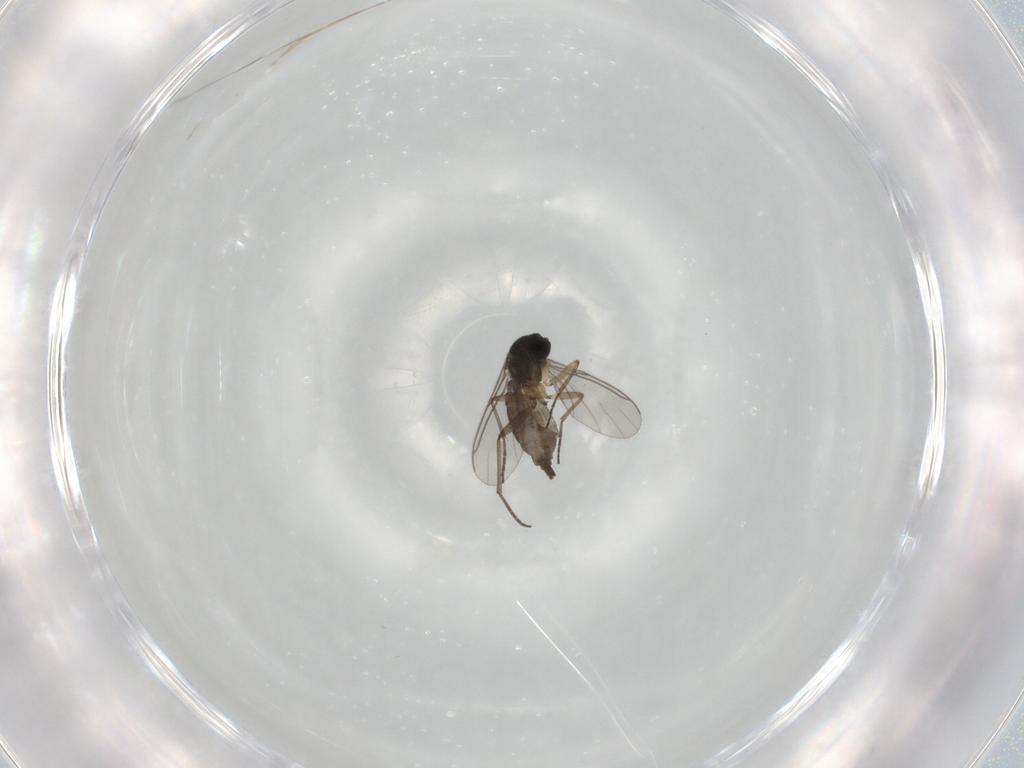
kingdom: Animalia
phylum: Arthropoda
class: Insecta
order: Diptera
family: Sciaridae
